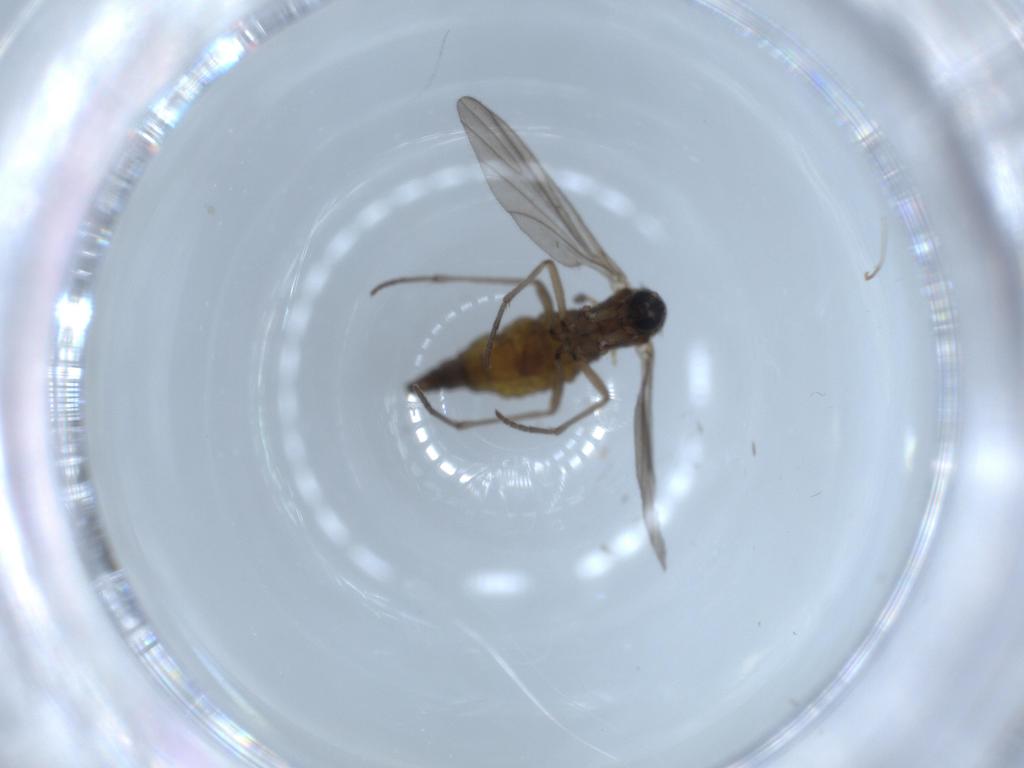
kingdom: Animalia
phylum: Arthropoda
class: Insecta
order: Diptera
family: Sciaridae
